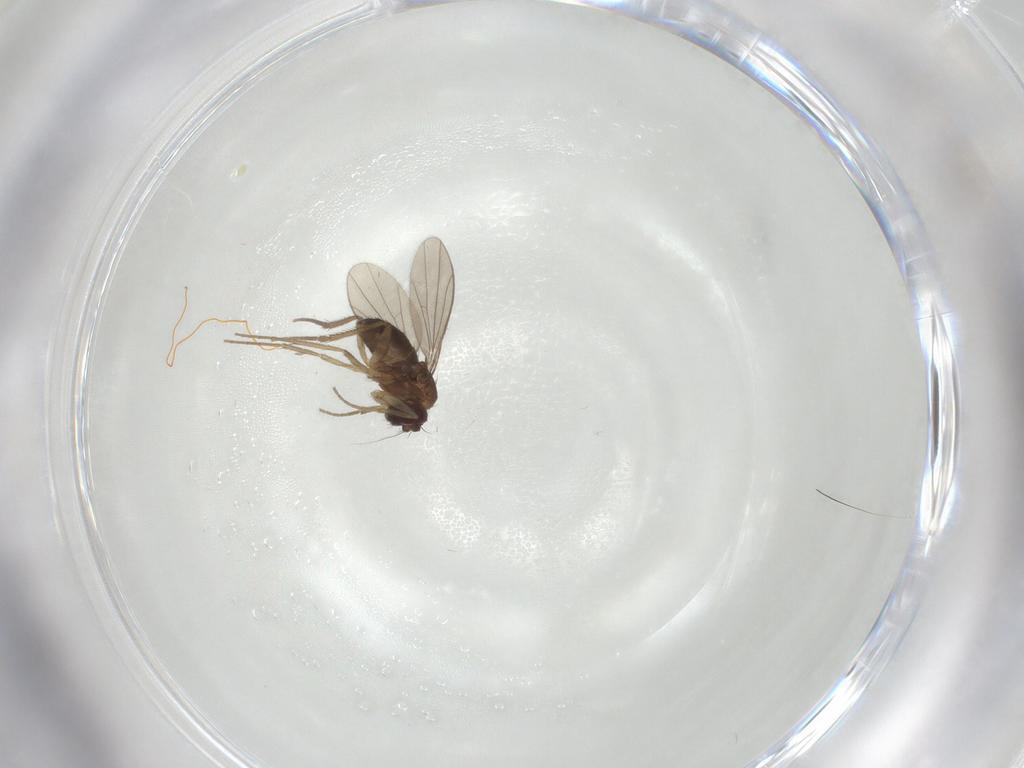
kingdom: Animalia
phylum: Arthropoda
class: Insecta
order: Diptera
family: Dolichopodidae
